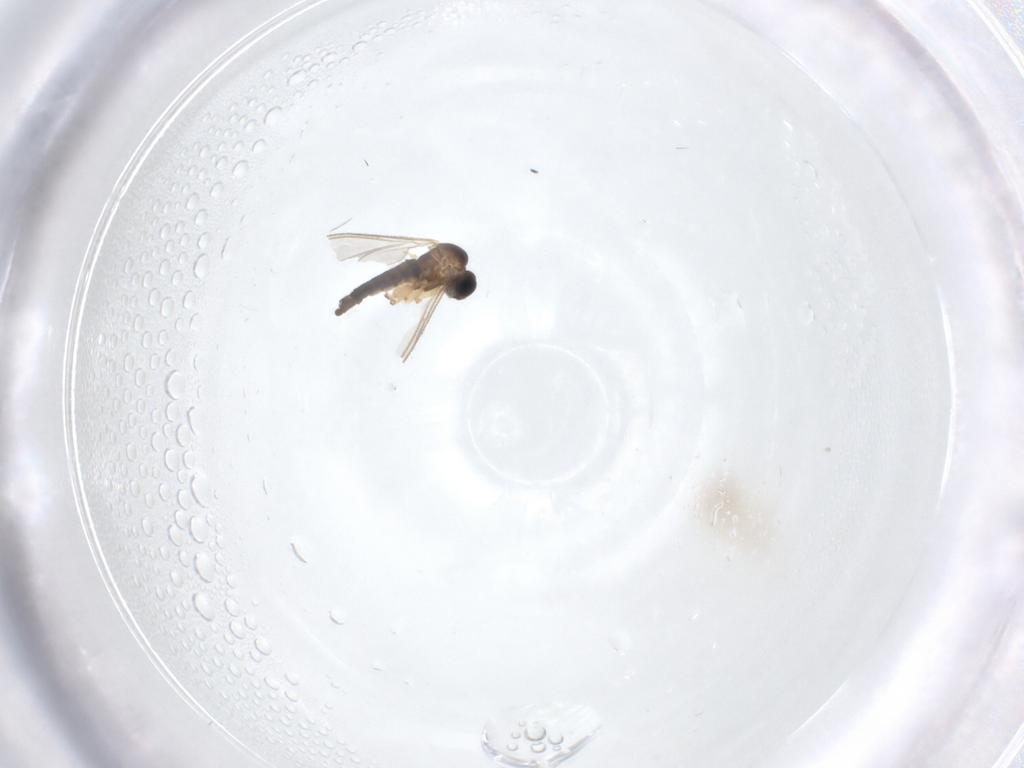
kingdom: Animalia
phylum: Arthropoda
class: Insecta
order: Diptera
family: Sciaridae
